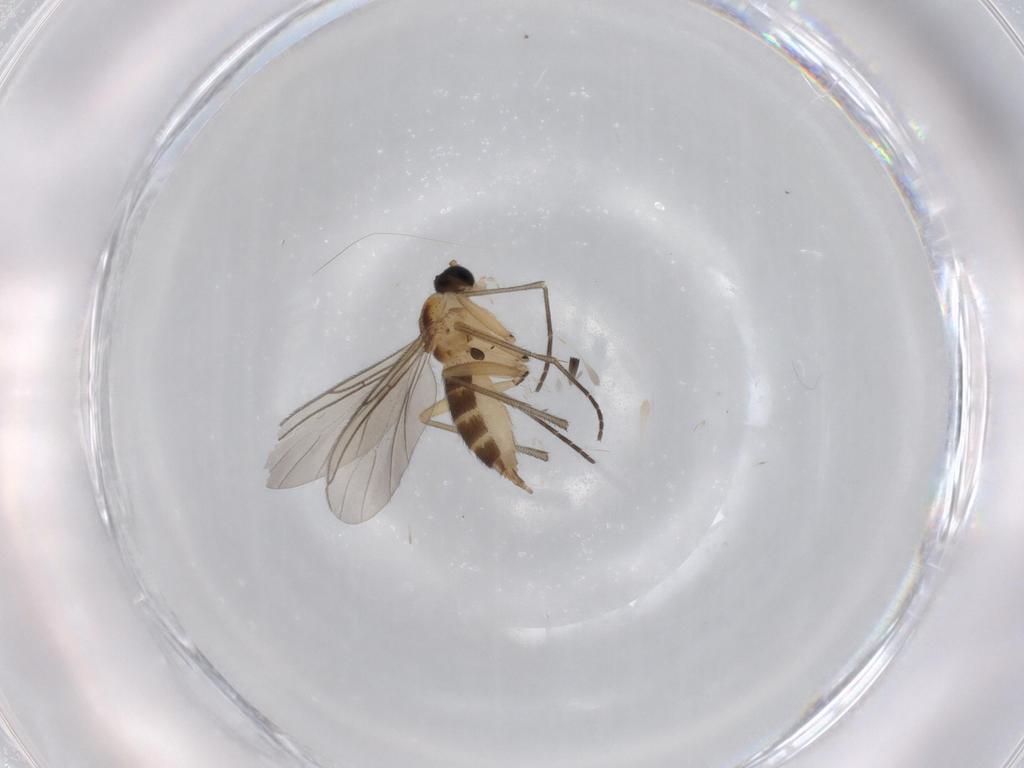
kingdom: Animalia
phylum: Arthropoda
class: Insecta
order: Diptera
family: Sciaridae
